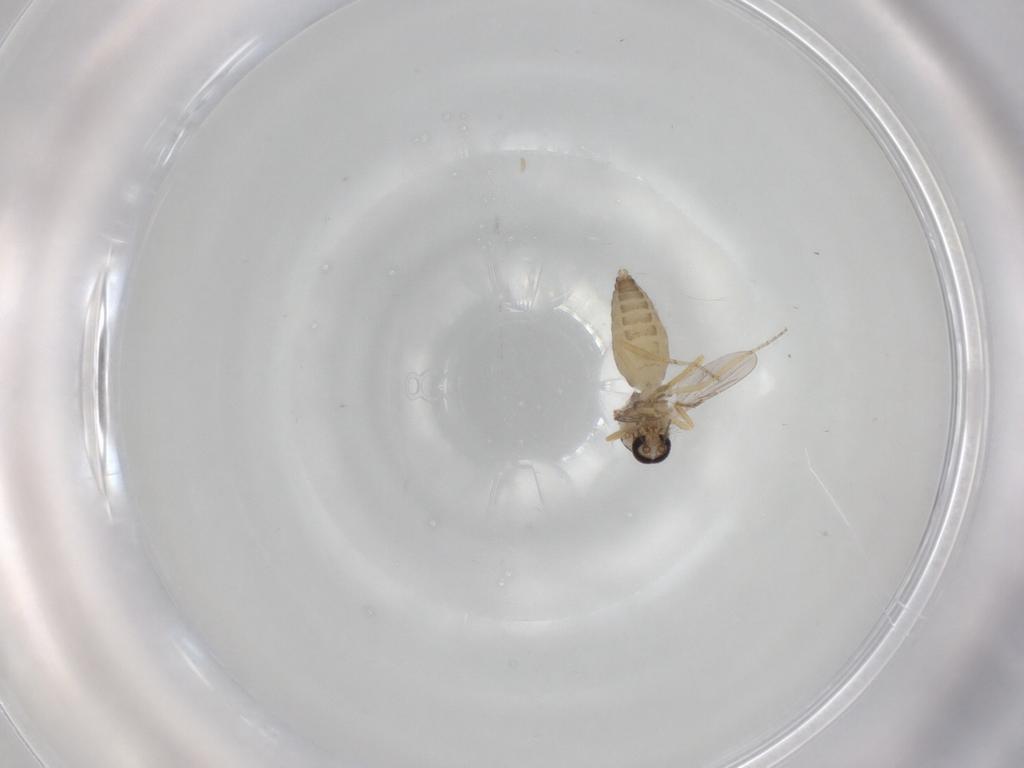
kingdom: Animalia
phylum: Arthropoda
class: Insecta
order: Diptera
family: Ceratopogonidae
